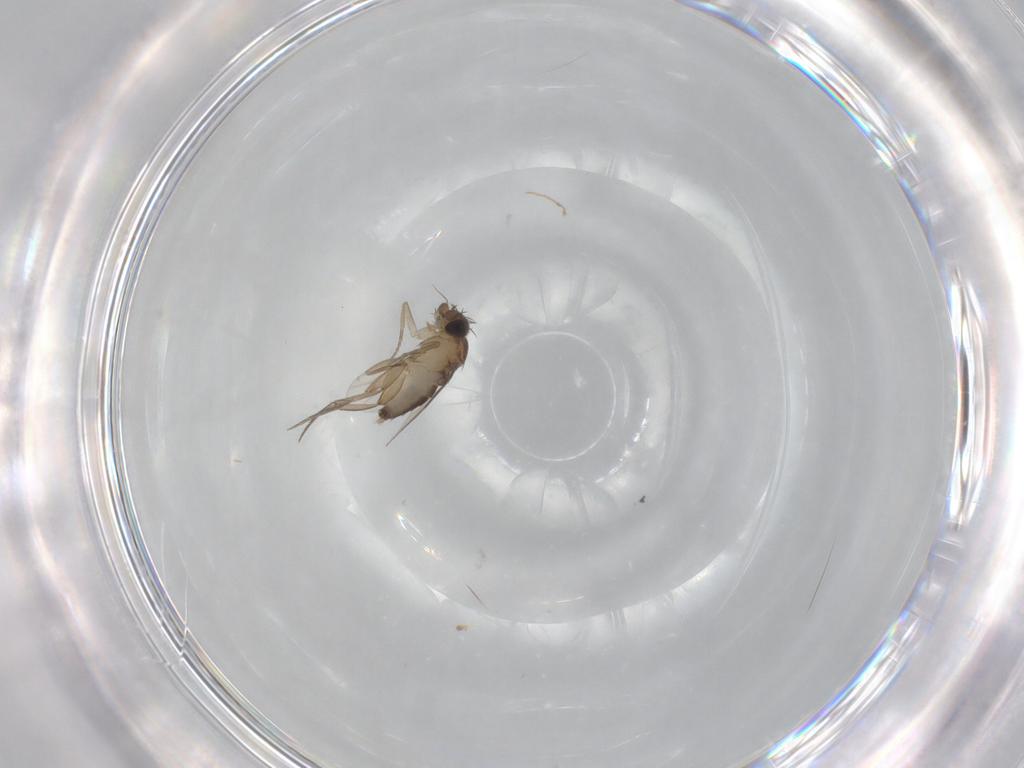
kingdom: Animalia
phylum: Arthropoda
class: Insecta
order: Diptera
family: Phoridae
